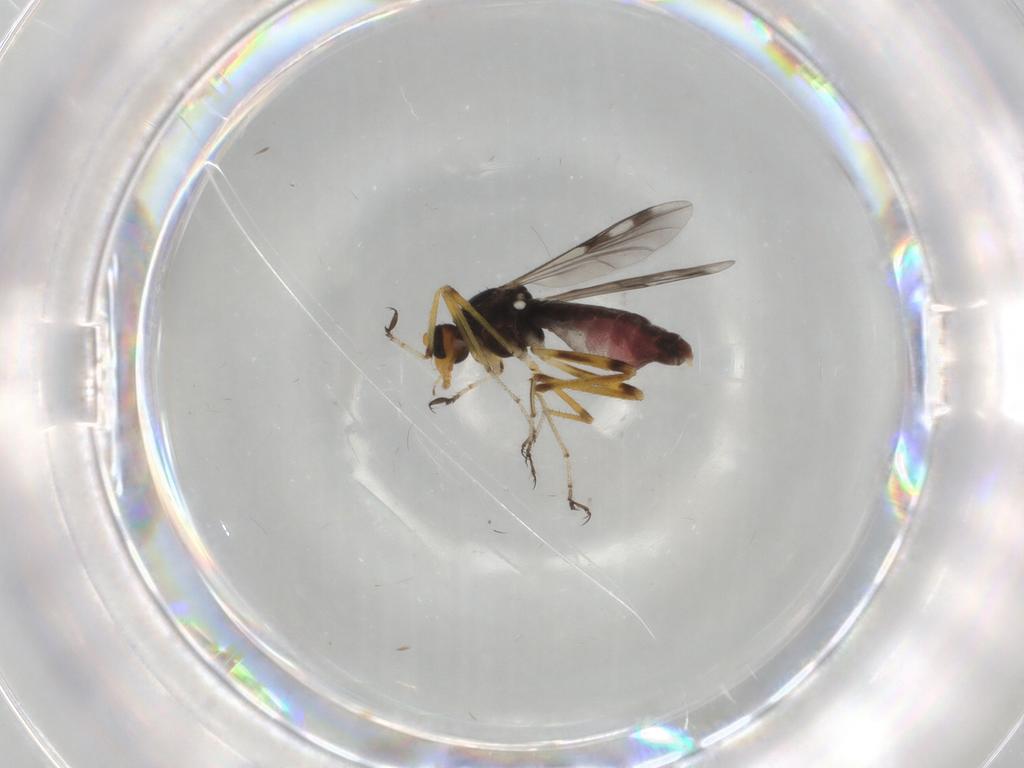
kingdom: Animalia
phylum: Arthropoda
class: Insecta
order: Diptera
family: Ceratopogonidae
